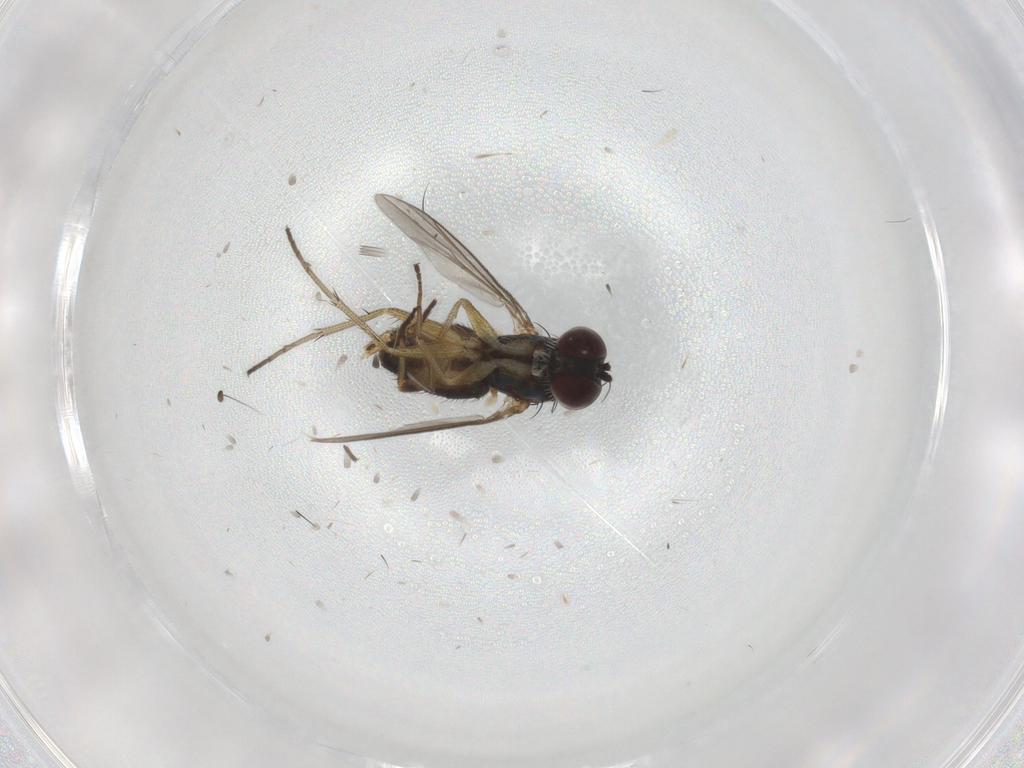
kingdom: Animalia
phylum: Arthropoda
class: Insecta
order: Diptera
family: Dolichopodidae
